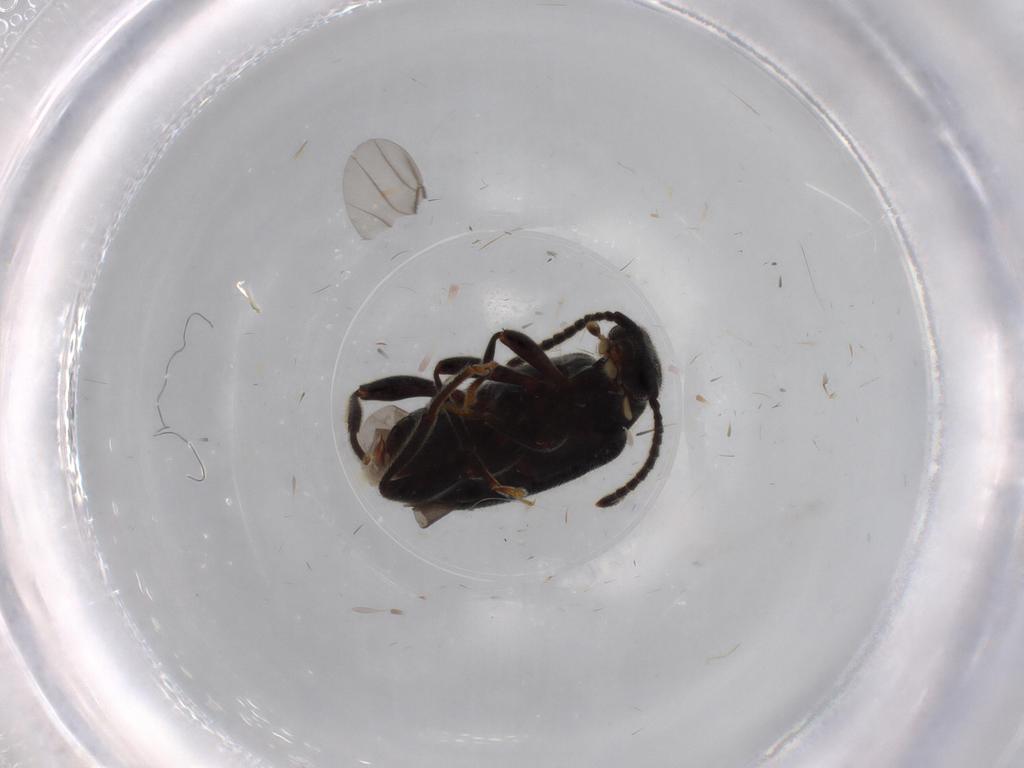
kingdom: Animalia
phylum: Arthropoda
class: Insecta
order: Coleoptera
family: Aderidae
